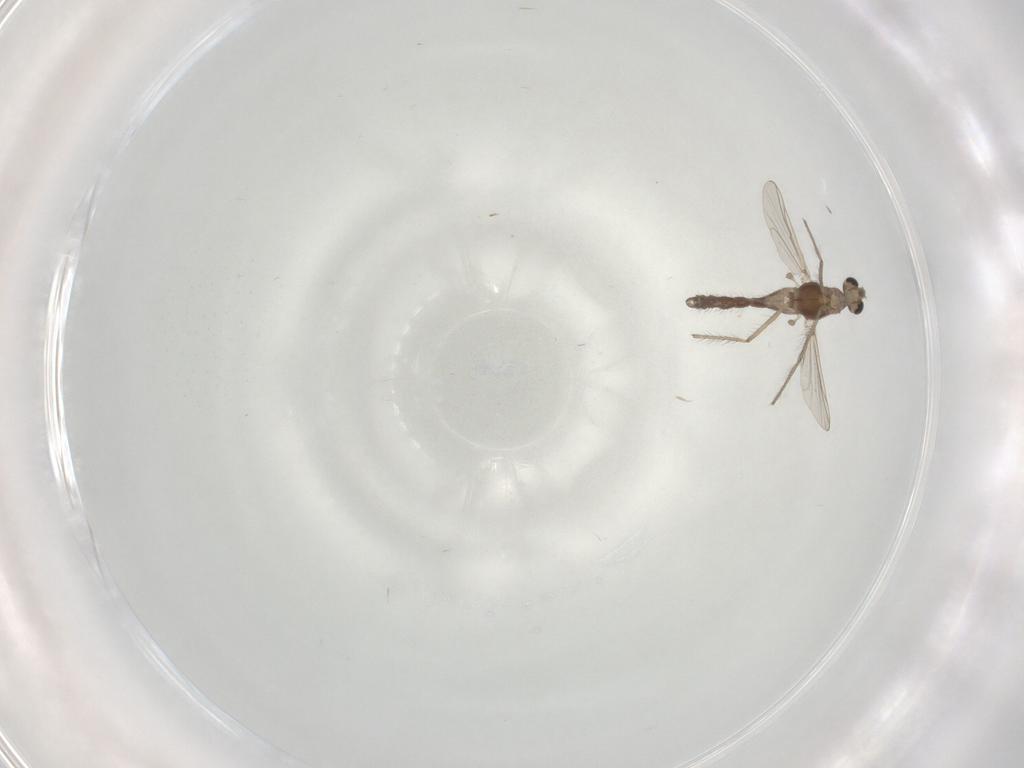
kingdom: Animalia
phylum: Arthropoda
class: Insecta
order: Diptera
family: Chironomidae
